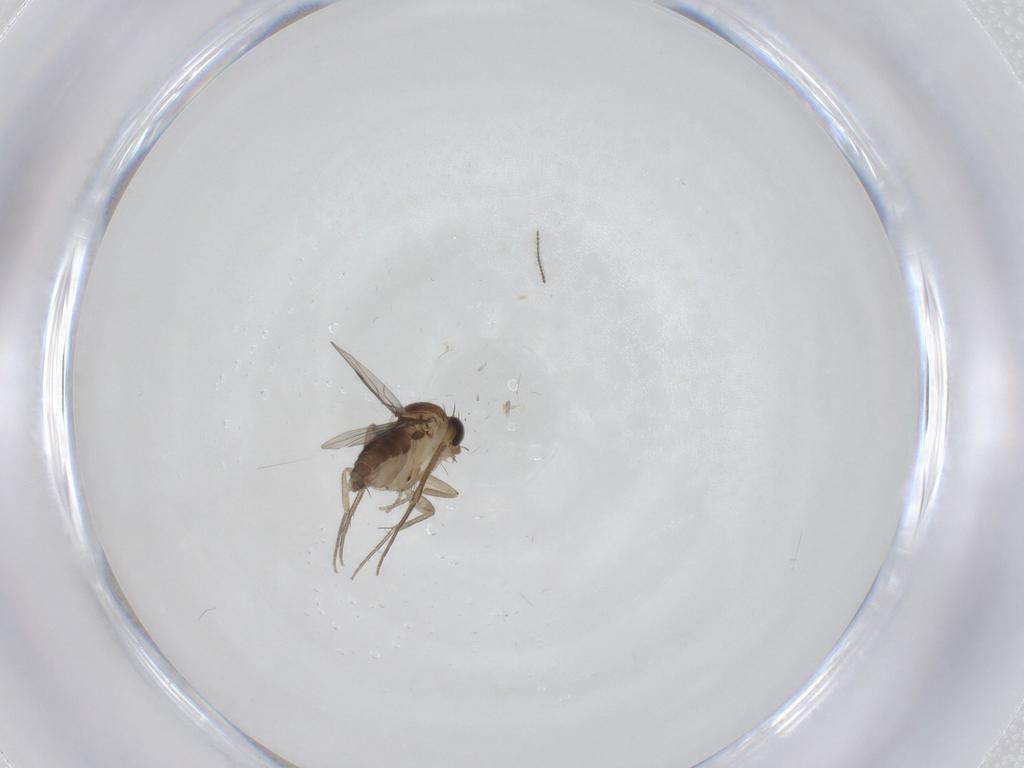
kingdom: Animalia
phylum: Arthropoda
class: Insecta
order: Diptera
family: Phoridae
